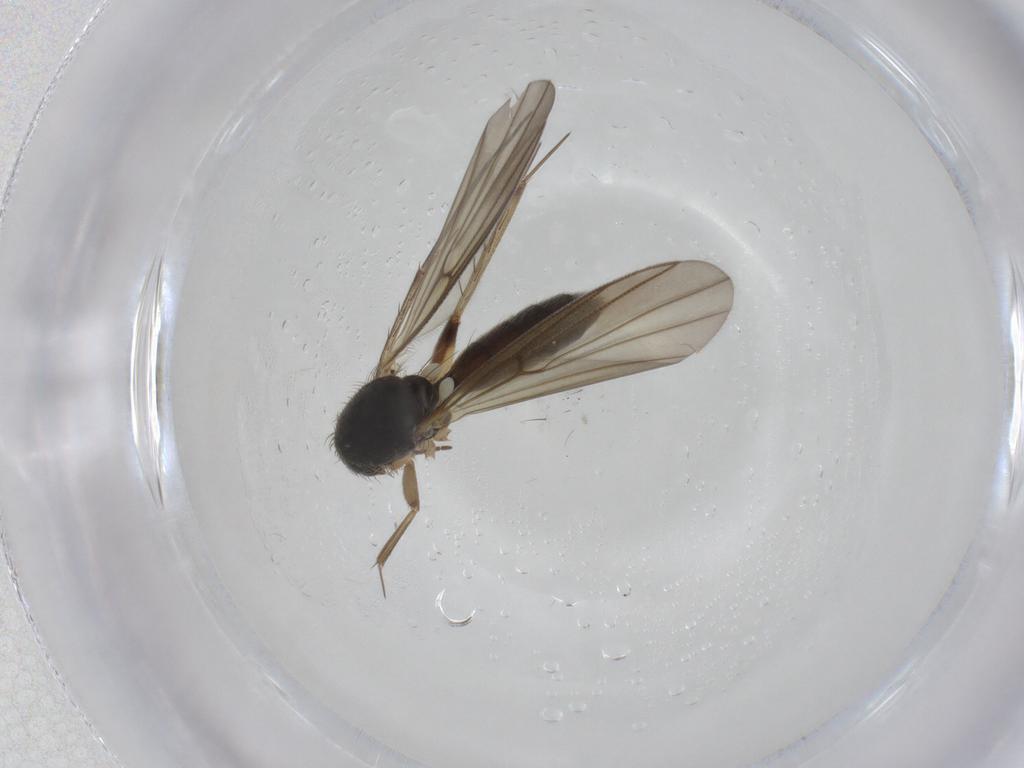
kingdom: Animalia
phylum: Arthropoda
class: Insecta
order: Diptera
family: Mycetophilidae
